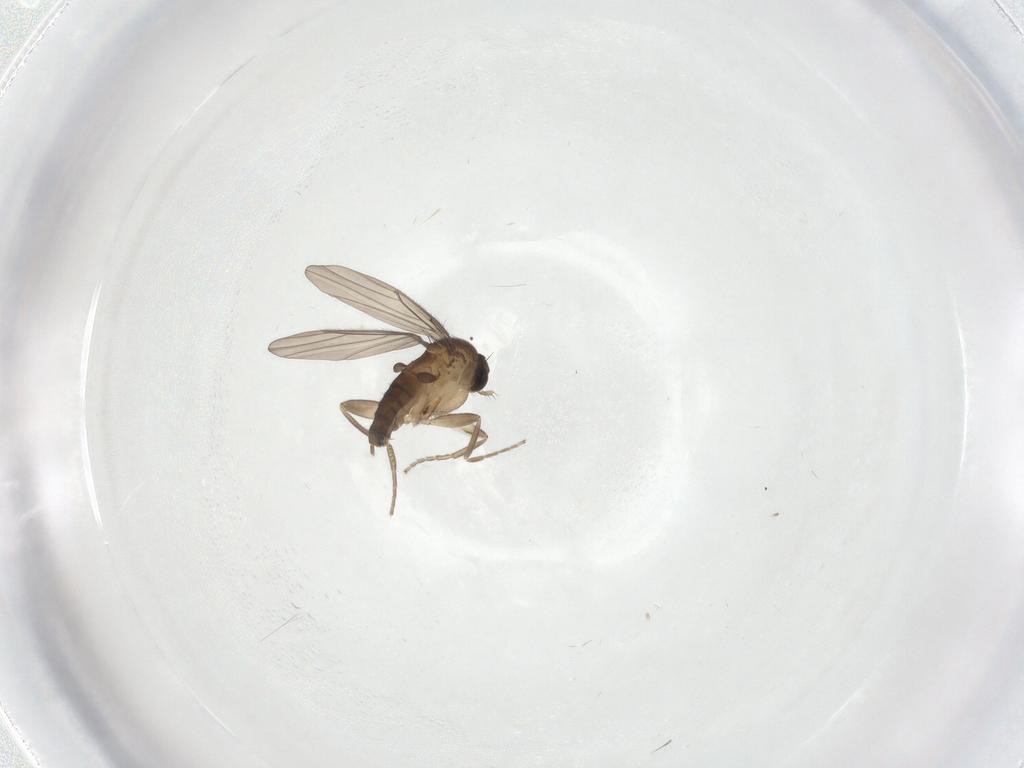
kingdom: Animalia
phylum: Arthropoda
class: Insecta
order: Diptera
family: Cecidomyiidae
